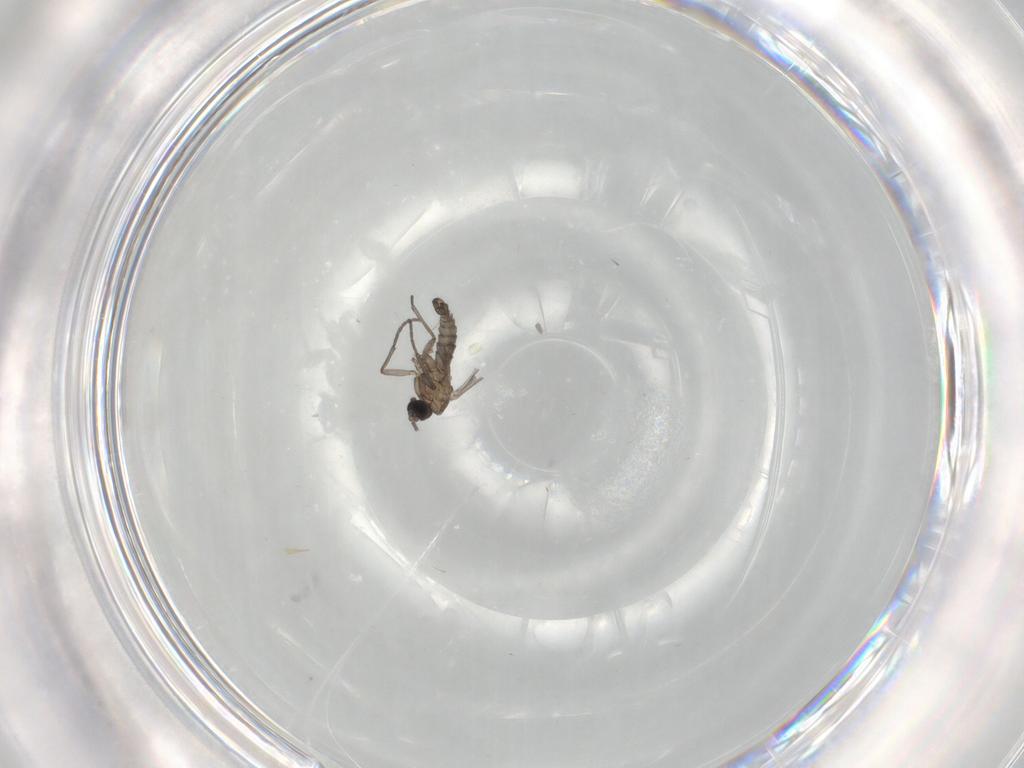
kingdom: Animalia
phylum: Arthropoda
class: Insecta
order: Diptera
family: Sciaridae
